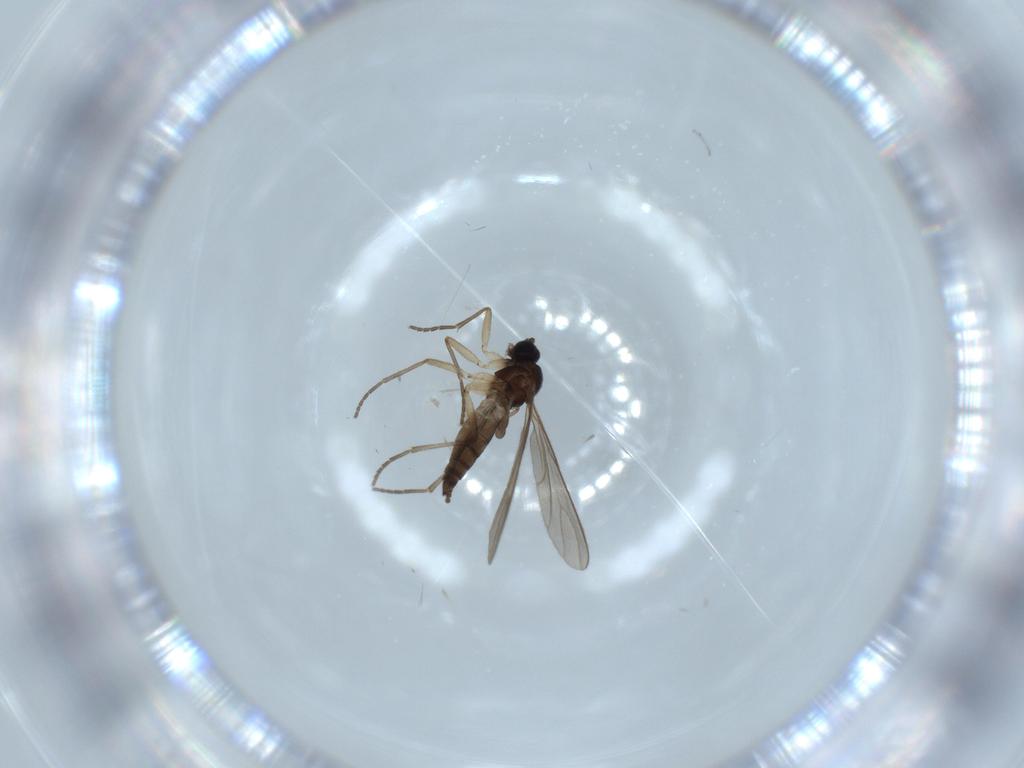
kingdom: Animalia
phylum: Arthropoda
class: Insecta
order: Diptera
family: Sciaridae
